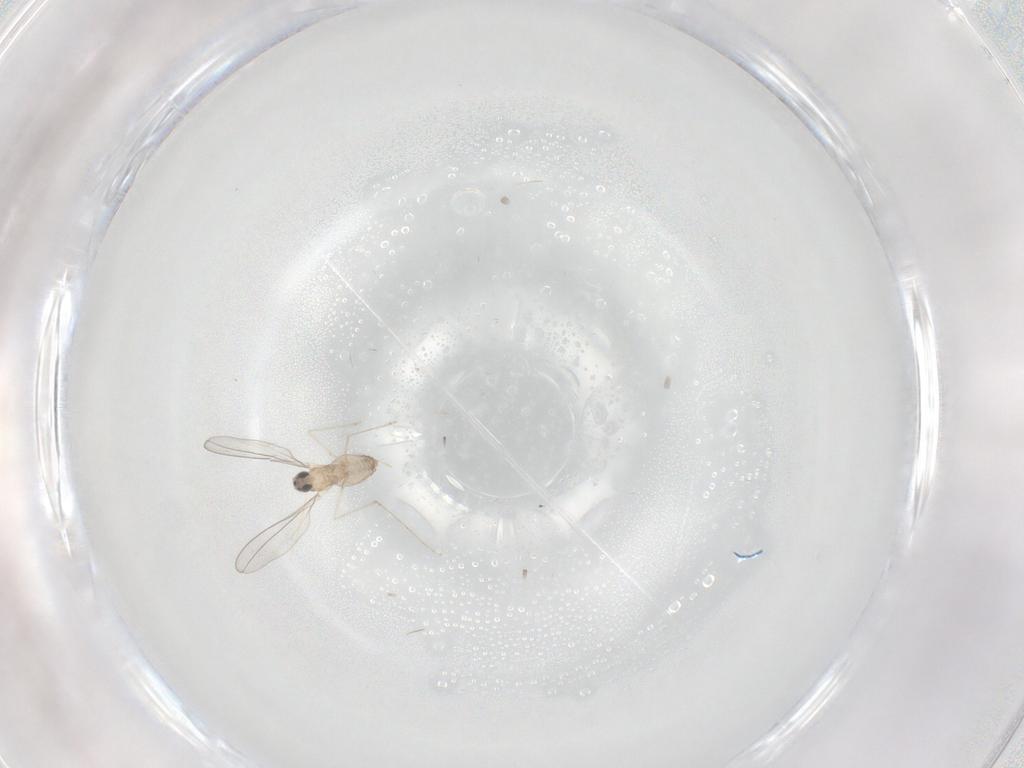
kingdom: Animalia
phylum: Arthropoda
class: Insecta
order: Diptera
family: Cecidomyiidae
